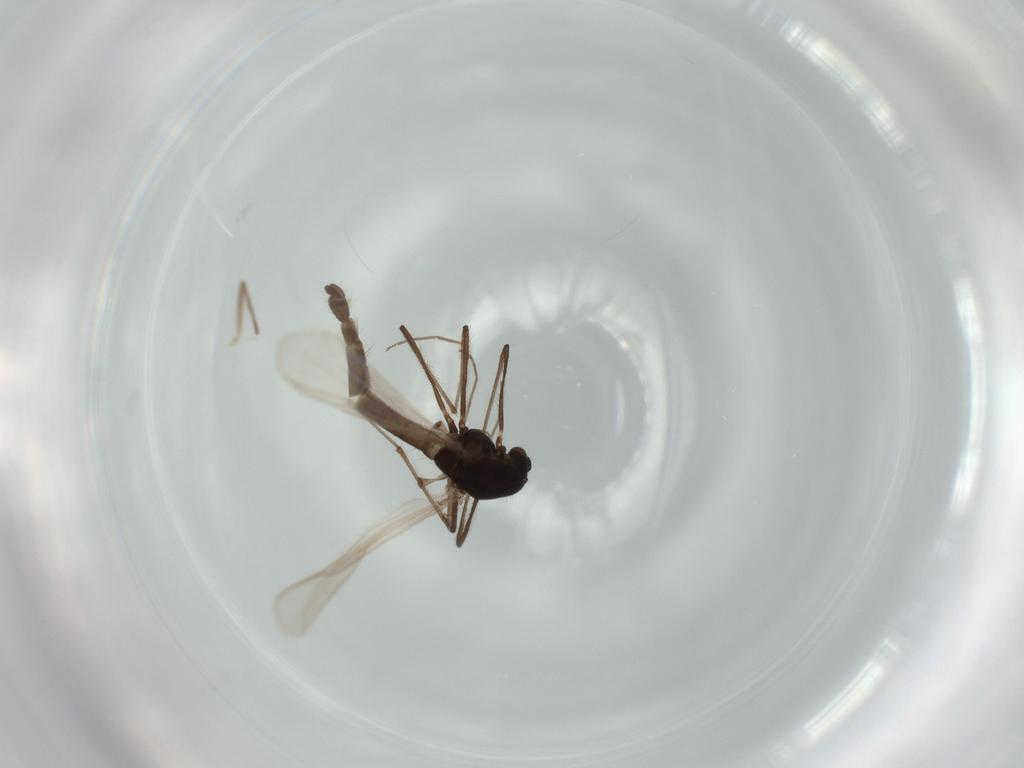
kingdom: Animalia
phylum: Arthropoda
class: Insecta
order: Diptera
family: Chironomidae
